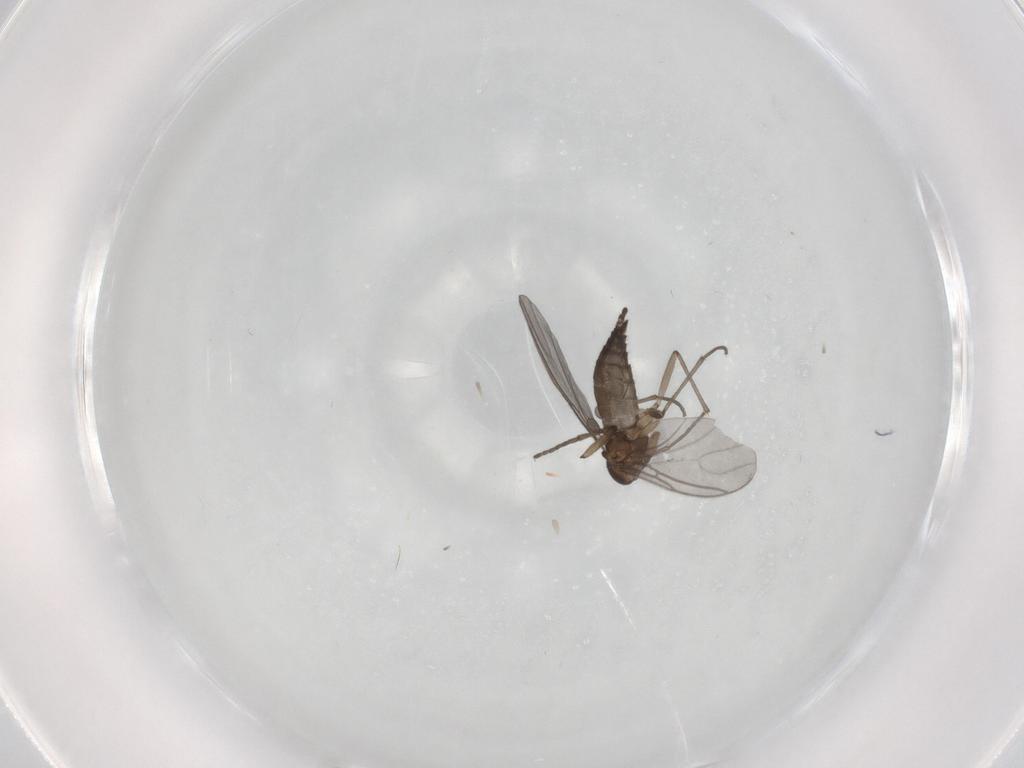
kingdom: Animalia
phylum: Arthropoda
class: Insecta
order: Diptera
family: Sciaridae
